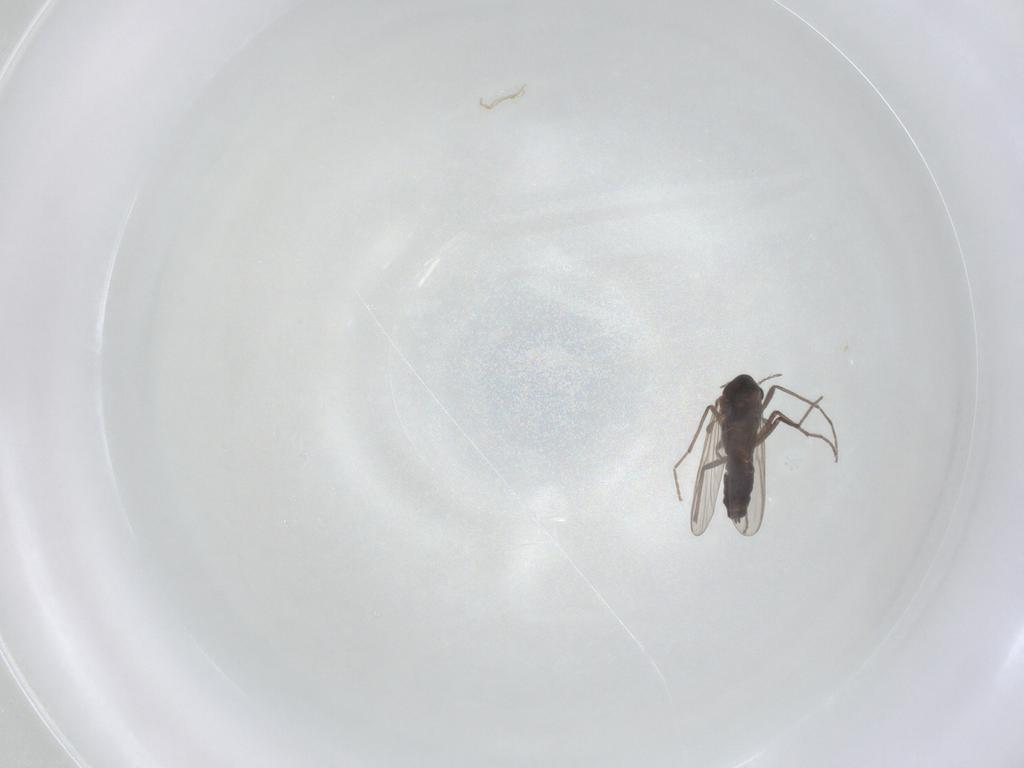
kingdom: Animalia
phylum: Arthropoda
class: Insecta
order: Diptera
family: Chironomidae
